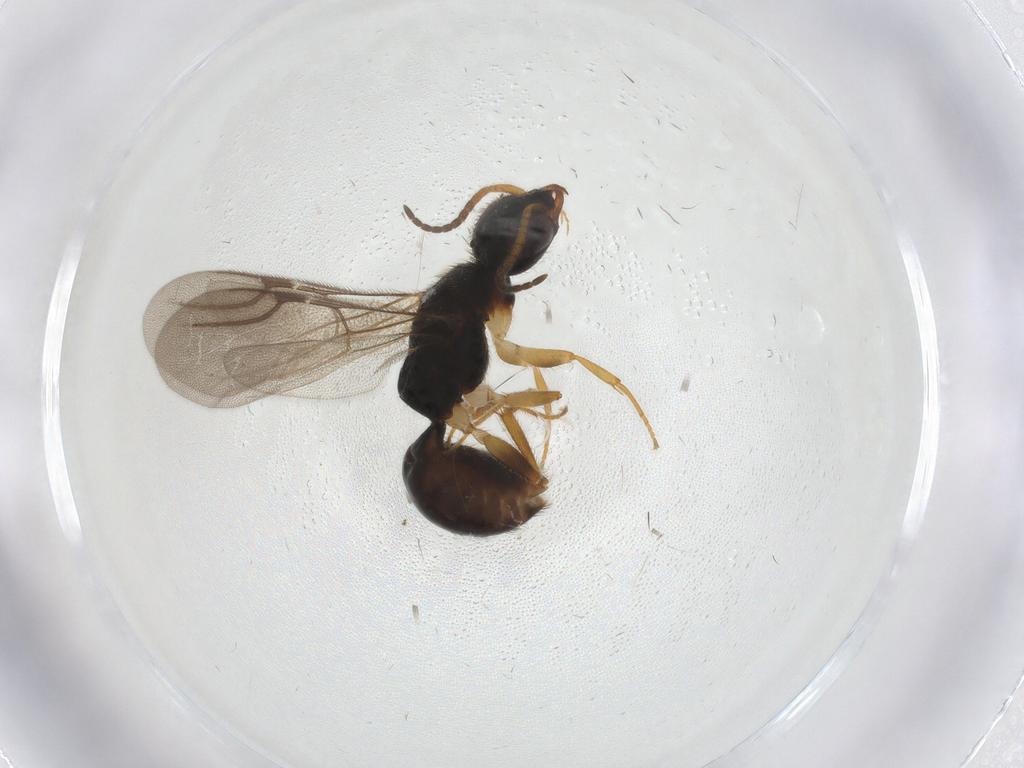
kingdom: Animalia
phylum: Arthropoda
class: Insecta
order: Hymenoptera
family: Bethylidae
